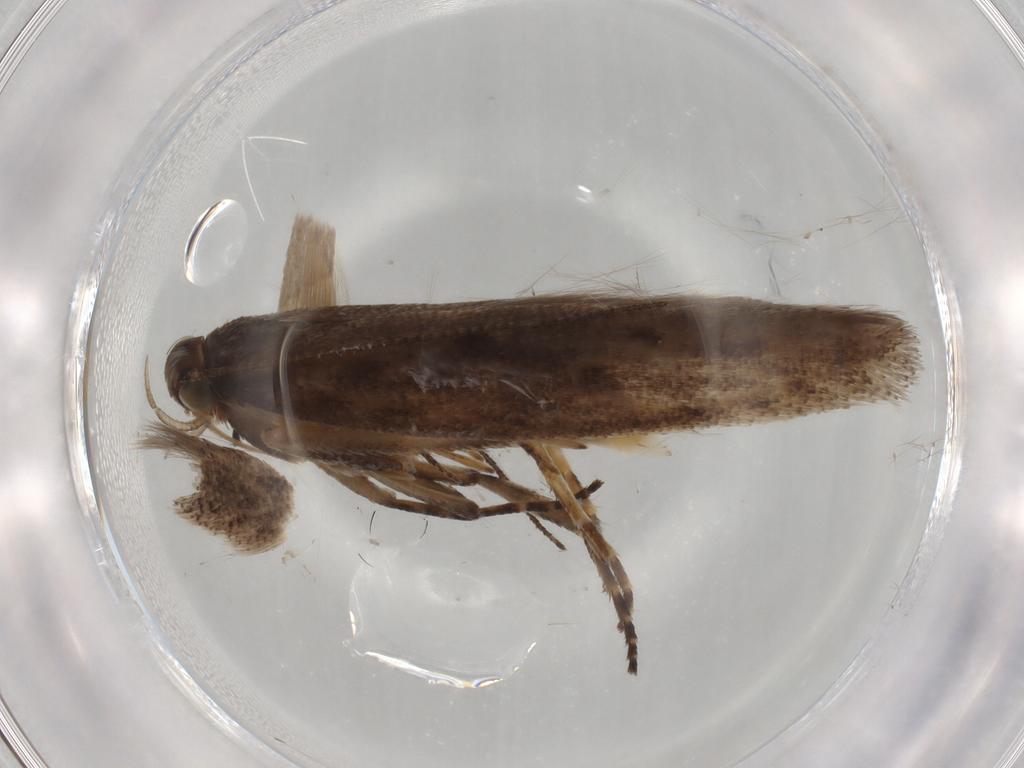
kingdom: Animalia
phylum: Arthropoda
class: Insecta
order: Lepidoptera
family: Gelechiidae
